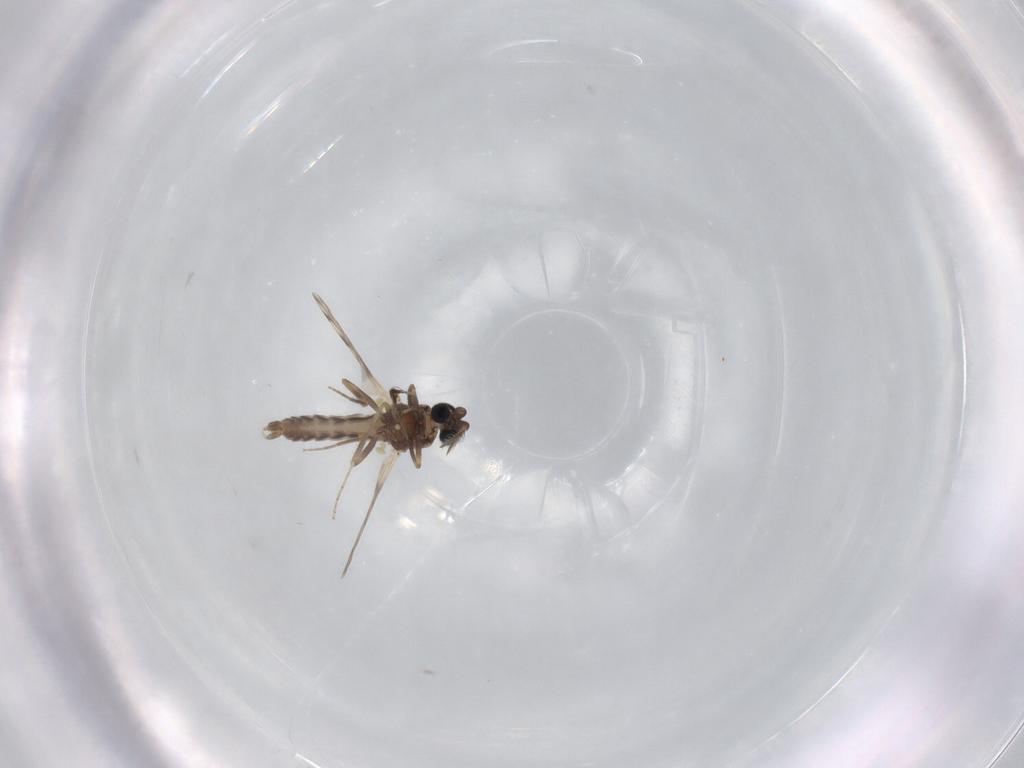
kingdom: Animalia
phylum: Arthropoda
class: Insecta
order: Diptera
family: Ceratopogonidae
